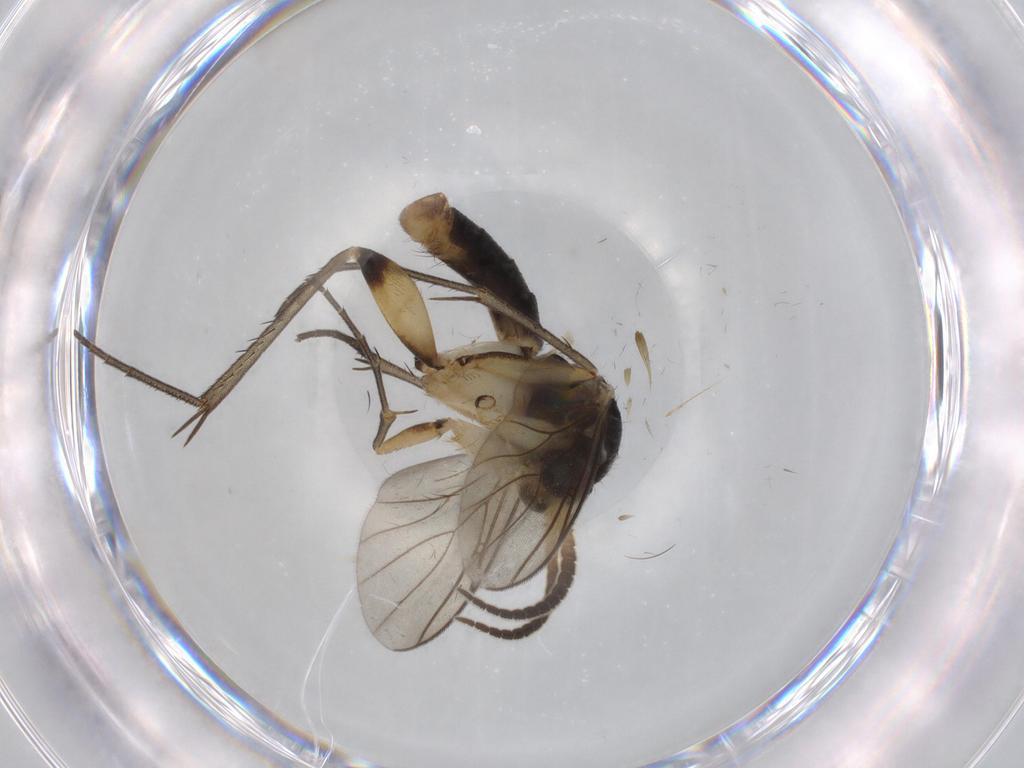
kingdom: Animalia
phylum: Arthropoda
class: Insecta
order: Diptera
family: Chironomidae
